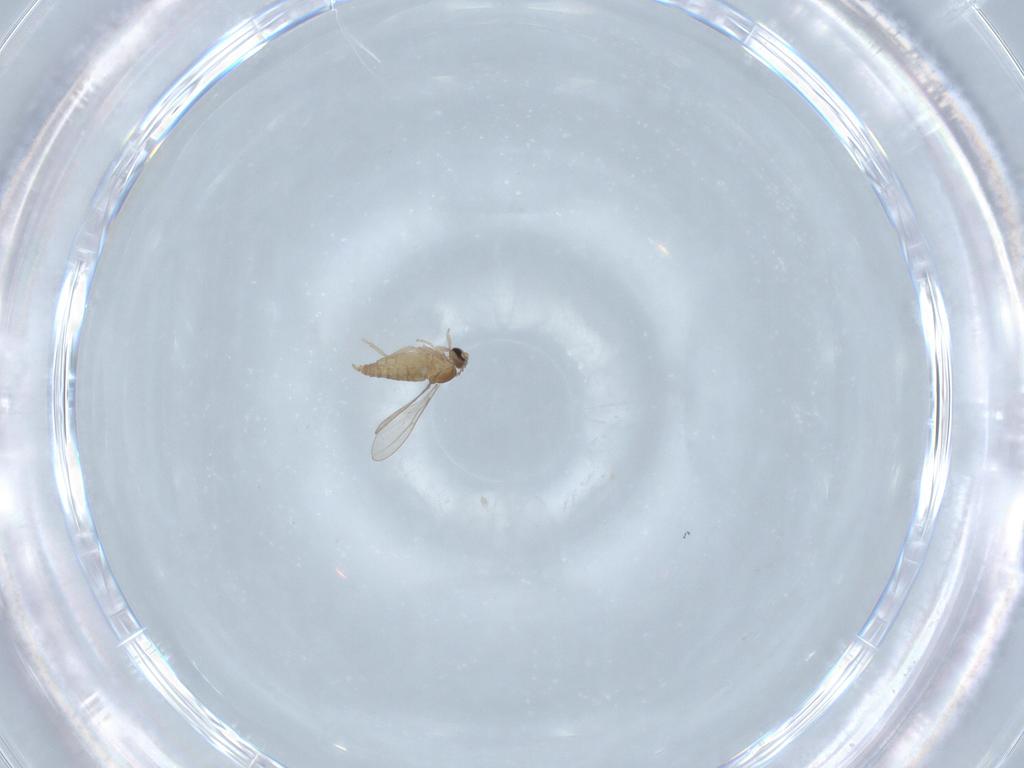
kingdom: Animalia
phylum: Arthropoda
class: Insecta
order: Diptera
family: Cecidomyiidae
